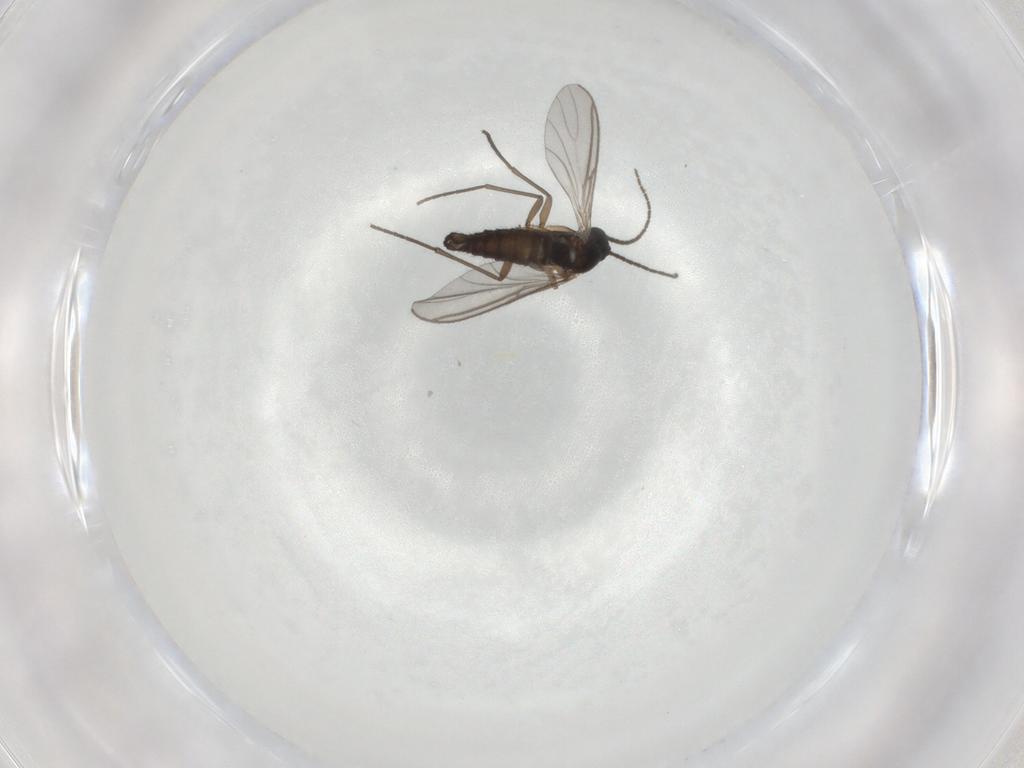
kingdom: Animalia
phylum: Arthropoda
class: Insecta
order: Diptera
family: Sciaridae
